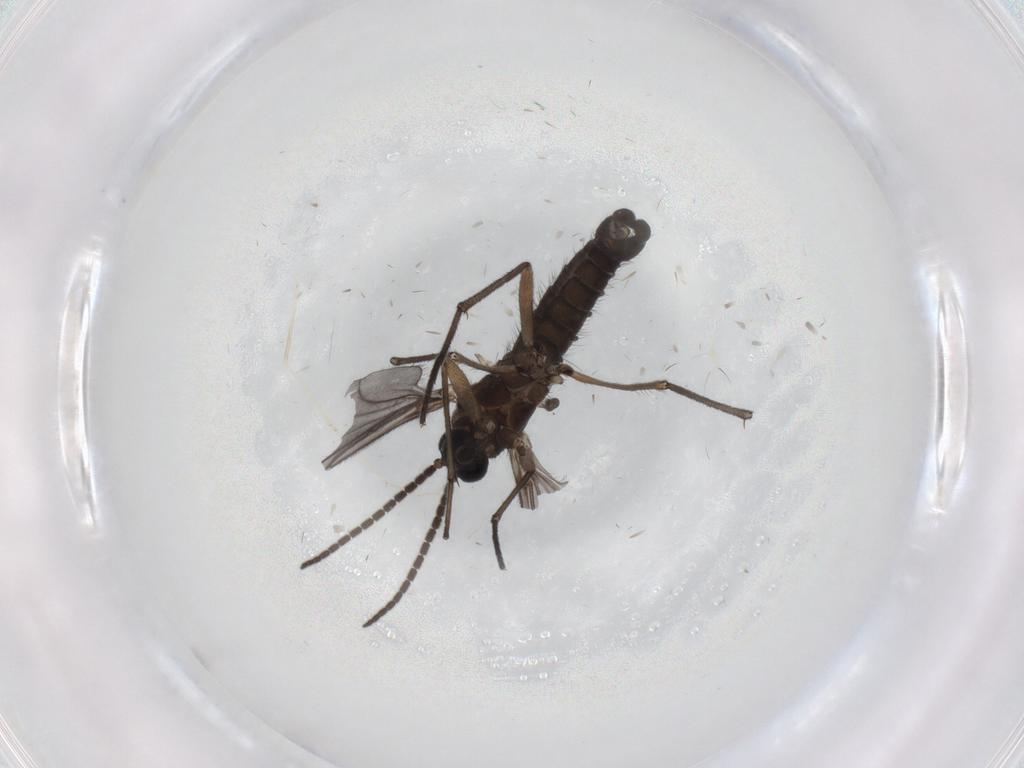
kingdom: Animalia
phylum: Arthropoda
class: Insecta
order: Diptera
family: Sciaridae
